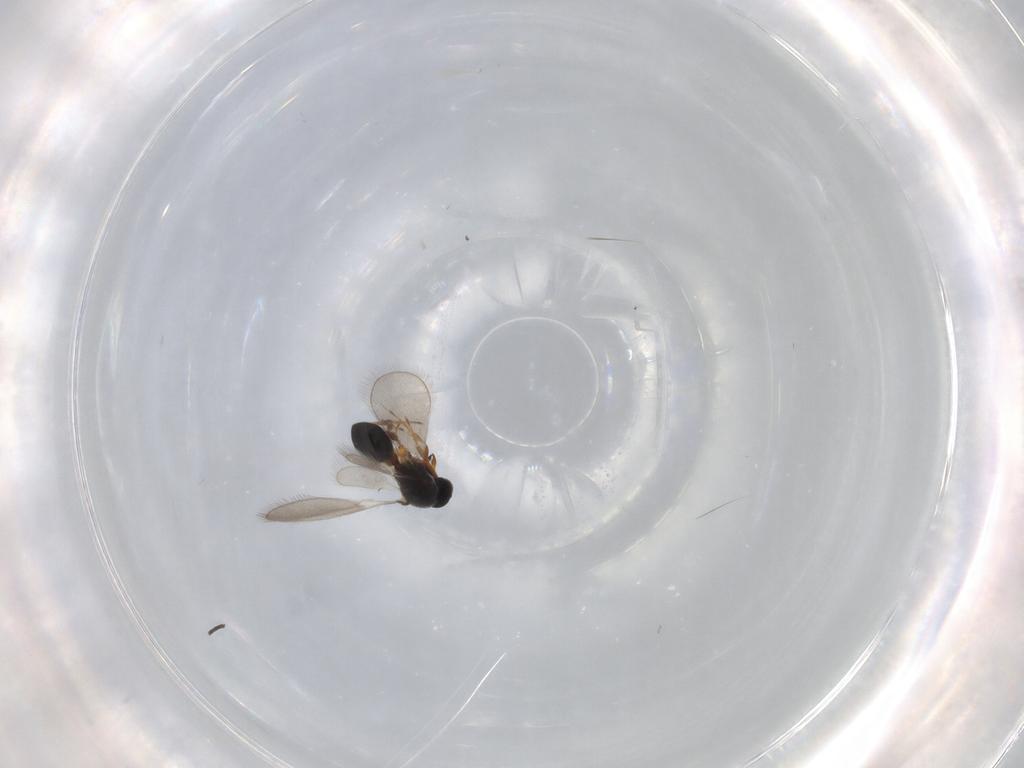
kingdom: Animalia
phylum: Arthropoda
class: Insecta
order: Hymenoptera
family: Platygastridae
